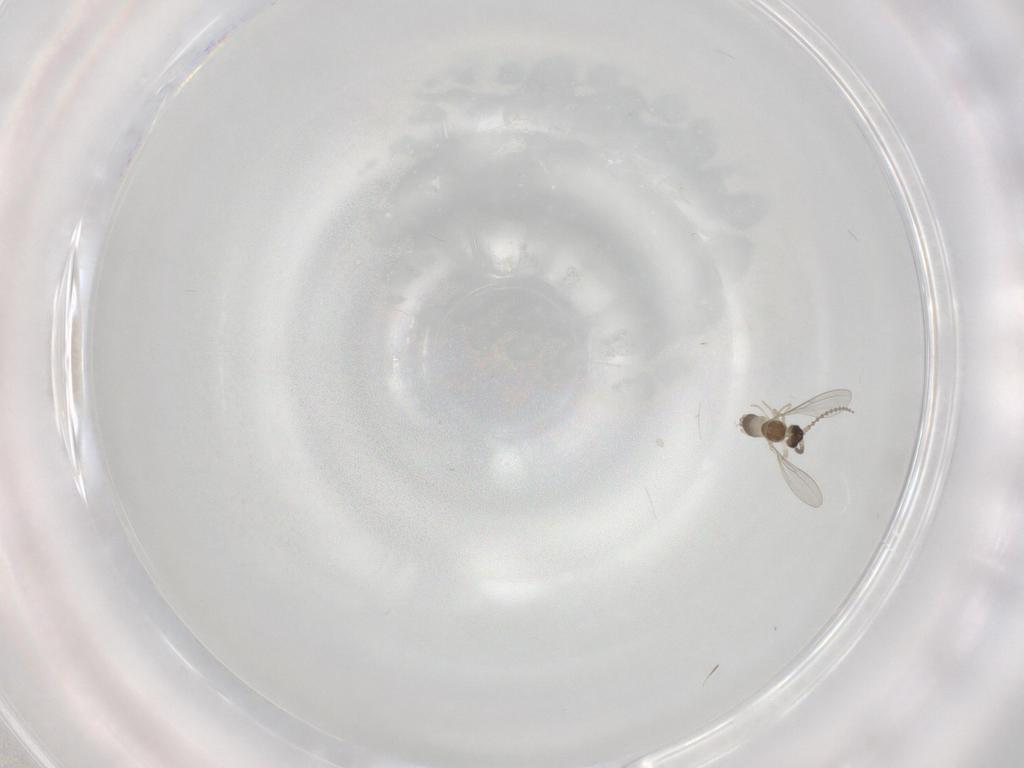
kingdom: Animalia
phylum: Arthropoda
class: Insecta
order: Diptera
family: Cecidomyiidae
